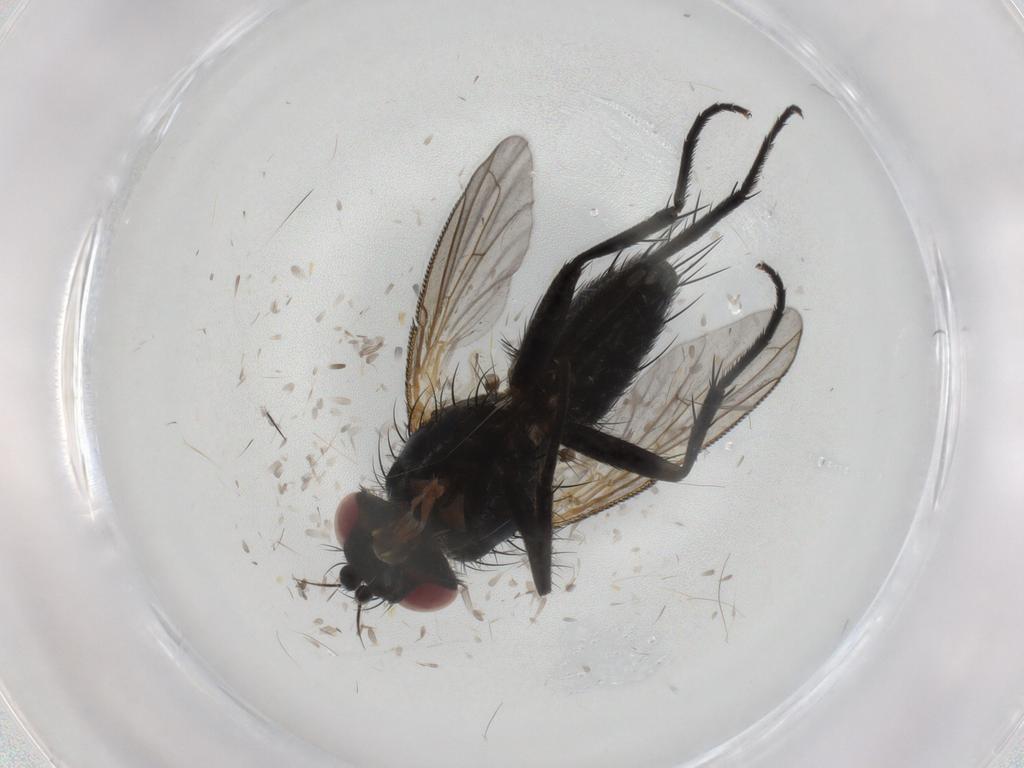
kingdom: Animalia
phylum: Arthropoda
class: Insecta
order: Diptera
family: Tachinidae
